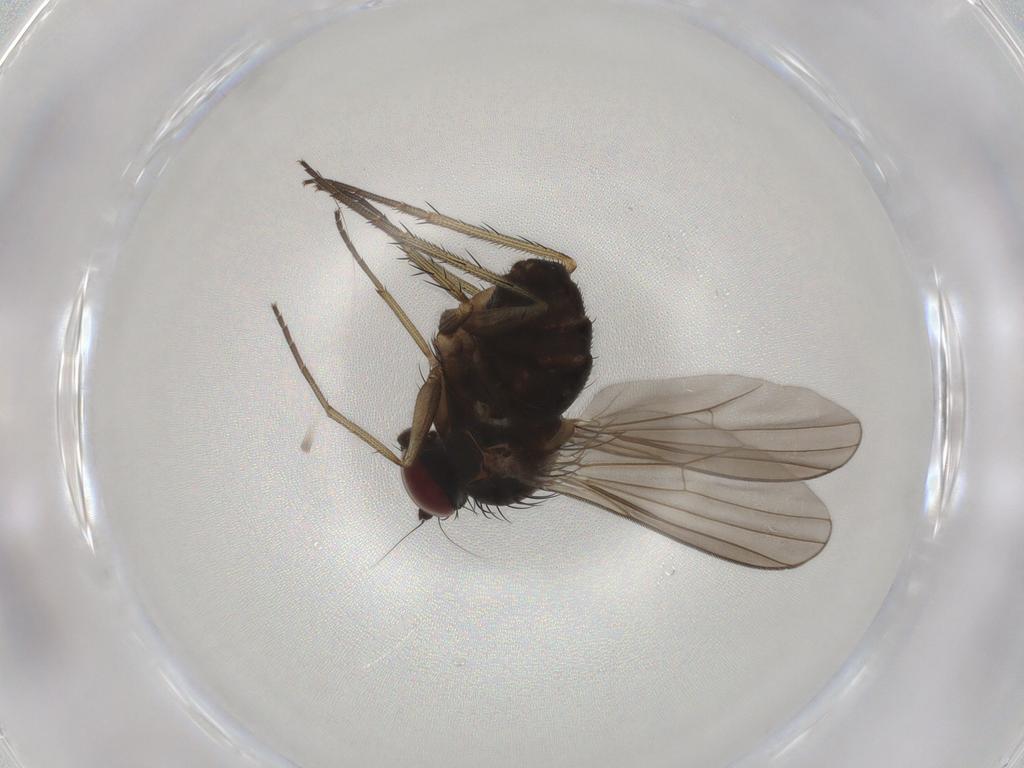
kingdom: Animalia
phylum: Arthropoda
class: Insecta
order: Diptera
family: Dolichopodidae
